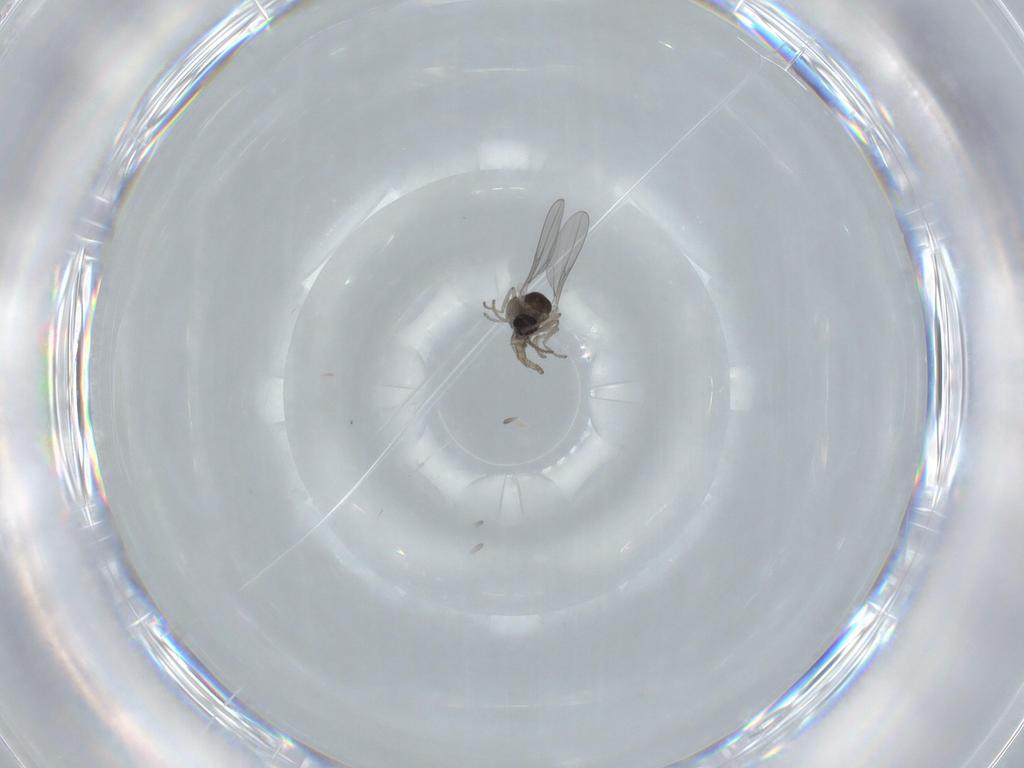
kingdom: Animalia
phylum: Arthropoda
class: Insecta
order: Diptera
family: Cecidomyiidae
